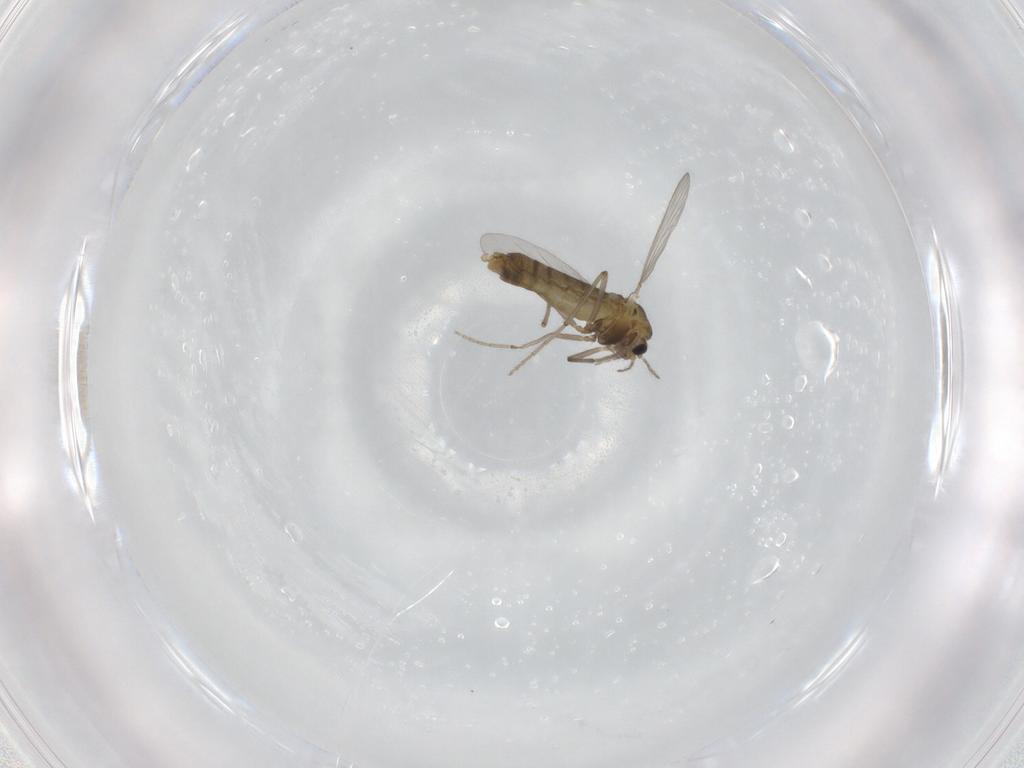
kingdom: Animalia
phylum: Arthropoda
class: Insecta
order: Diptera
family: Chironomidae
